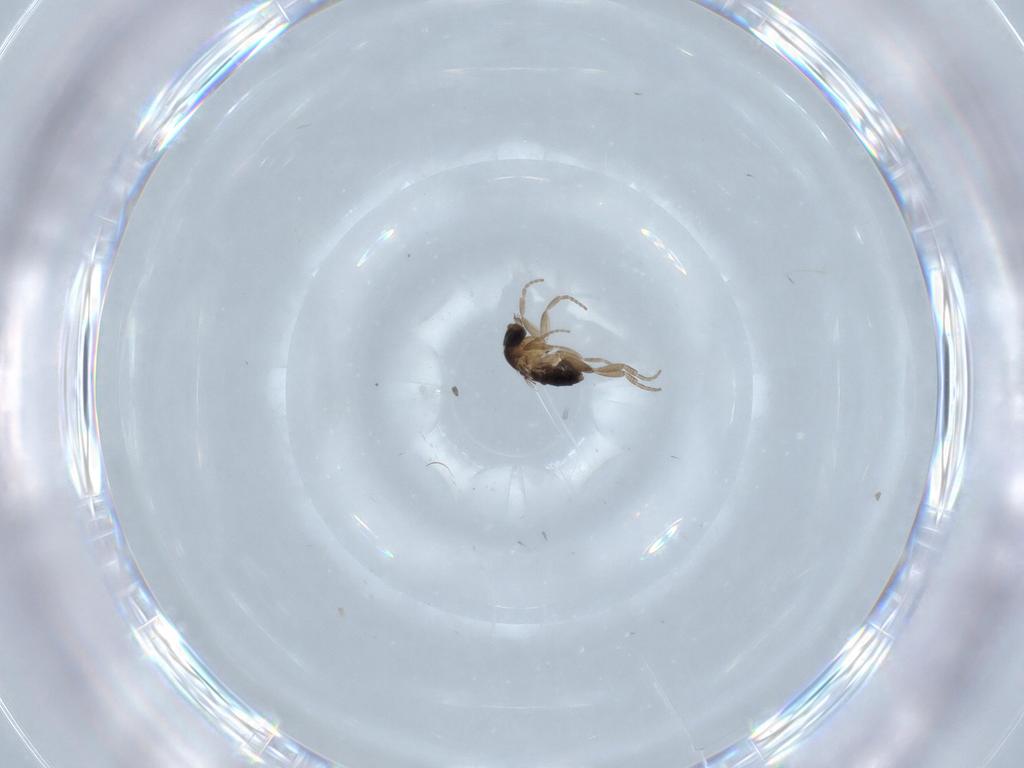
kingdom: Animalia
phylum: Arthropoda
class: Insecta
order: Diptera
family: Phoridae
